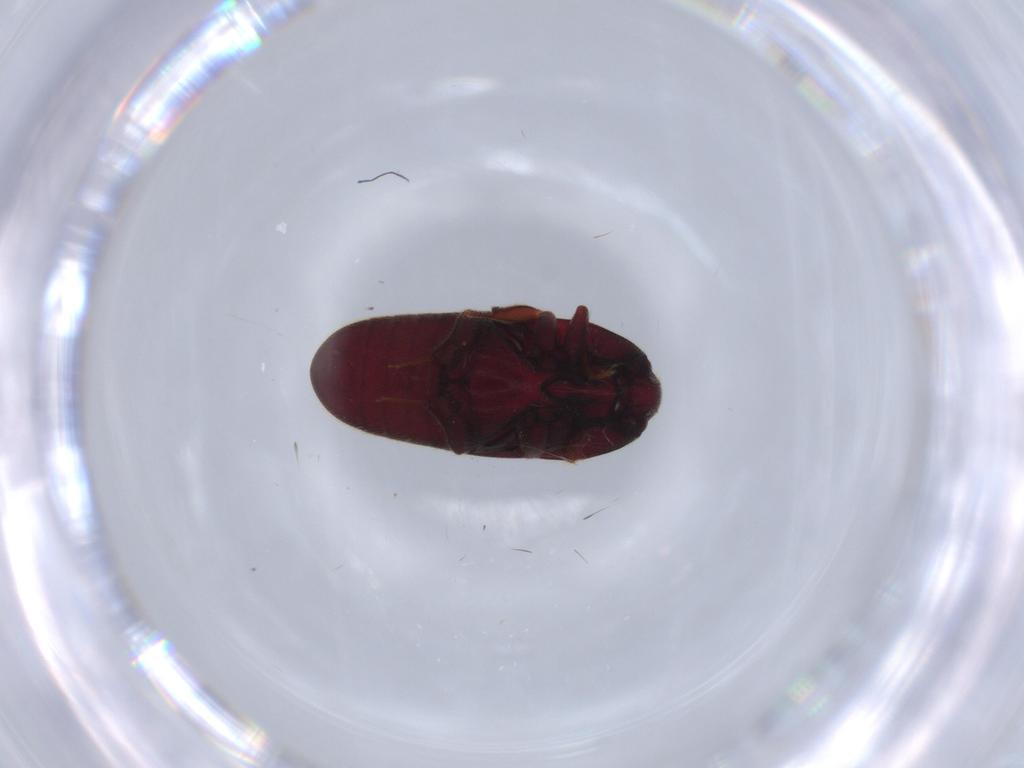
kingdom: Animalia
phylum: Arthropoda
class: Insecta
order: Coleoptera
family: Throscidae
